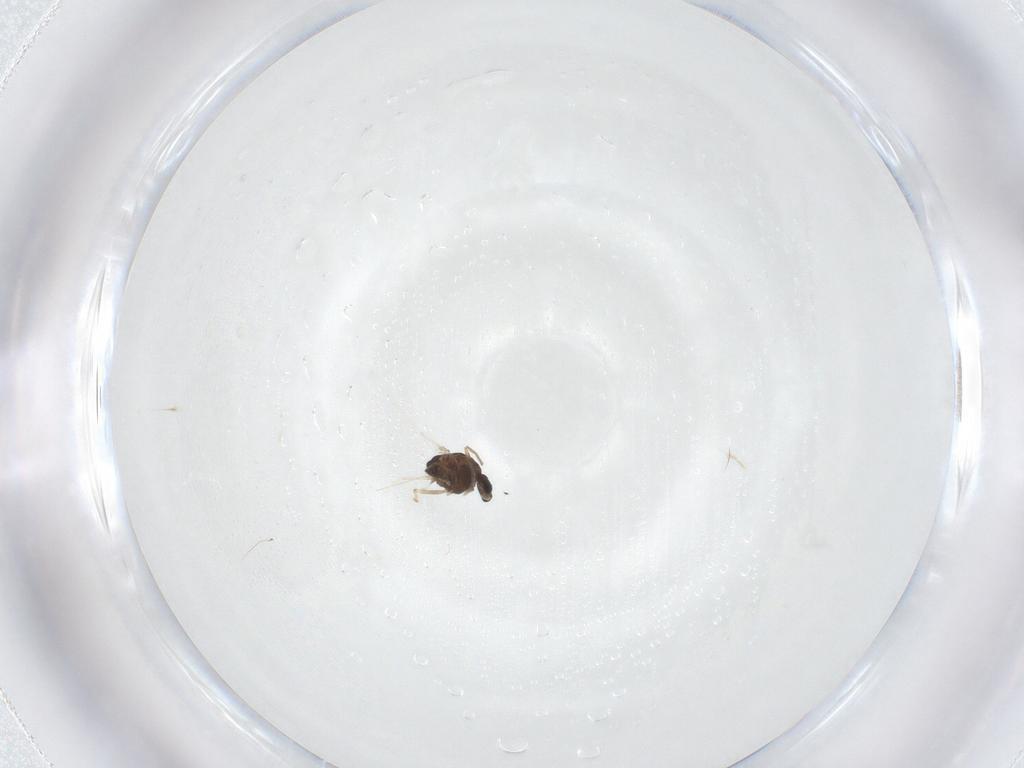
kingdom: Animalia
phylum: Arthropoda
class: Insecta
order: Diptera
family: Chironomidae
